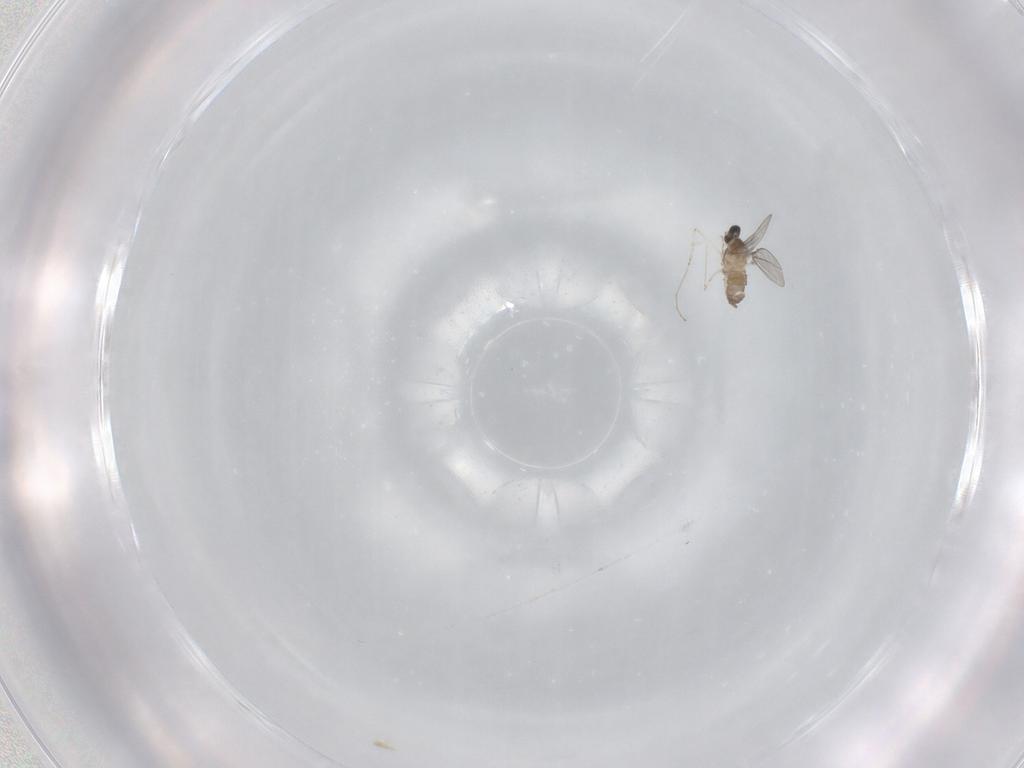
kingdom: Animalia
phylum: Arthropoda
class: Insecta
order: Diptera
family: Cecidomyiidae
